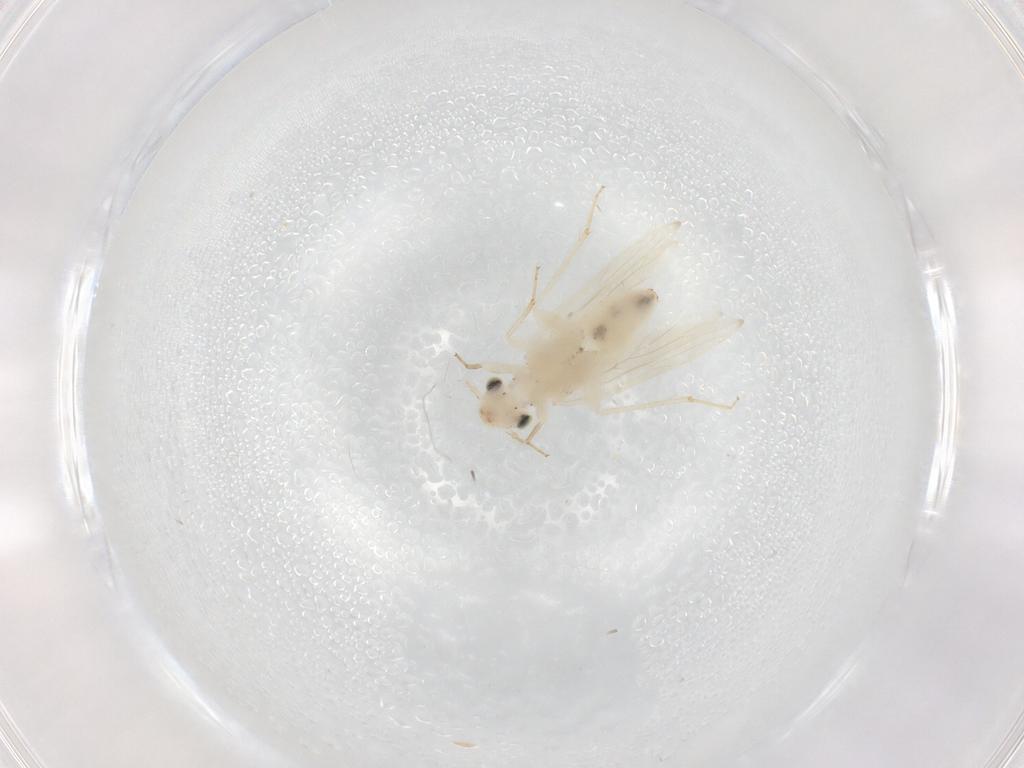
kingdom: Animalia
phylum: Arthropoda
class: Insecta
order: Psocodea
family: Lepidopsocidae
